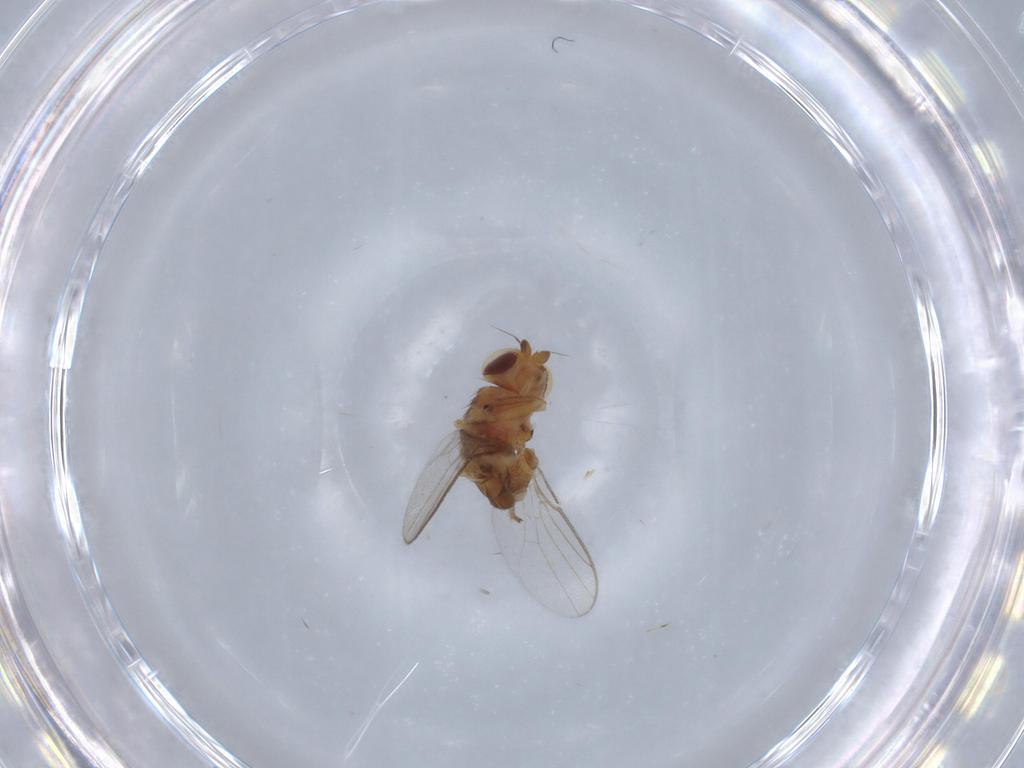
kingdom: Animalia
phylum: Arthropoda
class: Insecta
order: Diptera
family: Chloropidae
